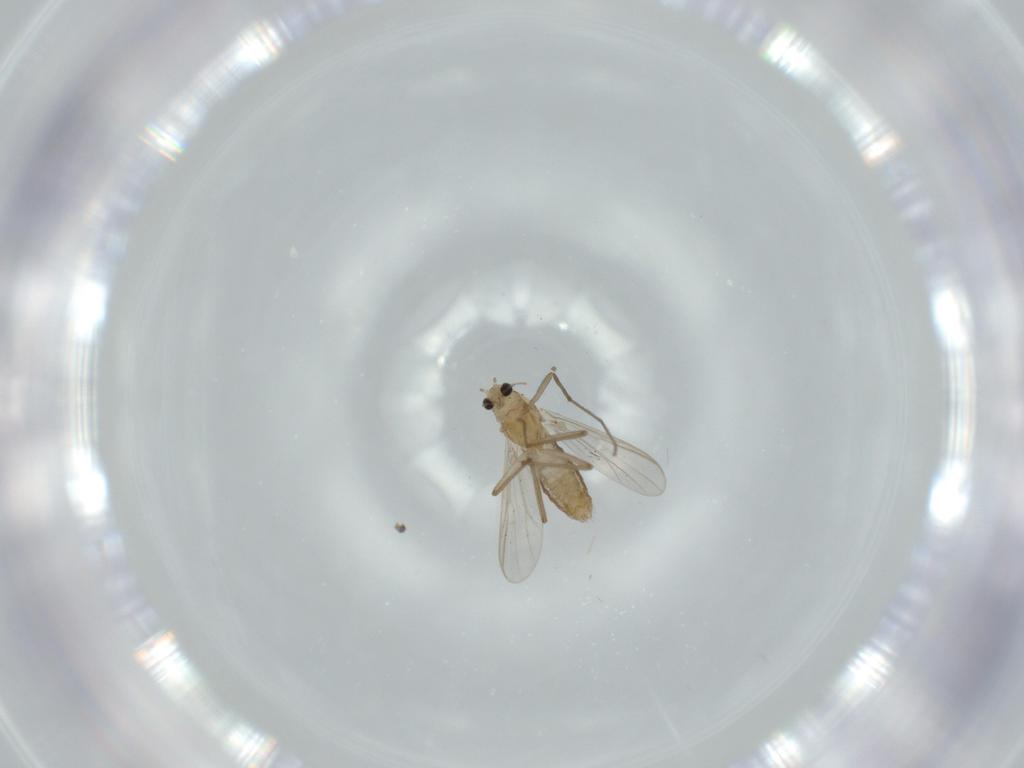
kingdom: Animalia
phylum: Arthropoda
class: Insecta
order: Diptera
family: Chironomidae
